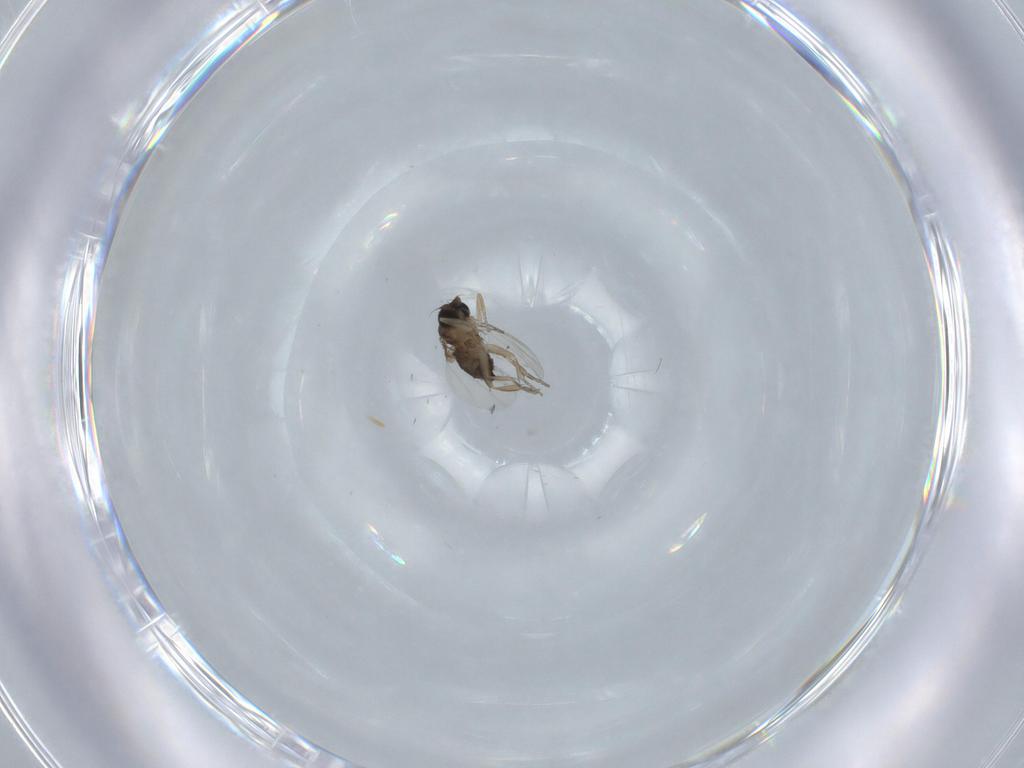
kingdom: Animalia
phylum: Arthropoda
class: Insecta
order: Diptera
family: Phoridae
